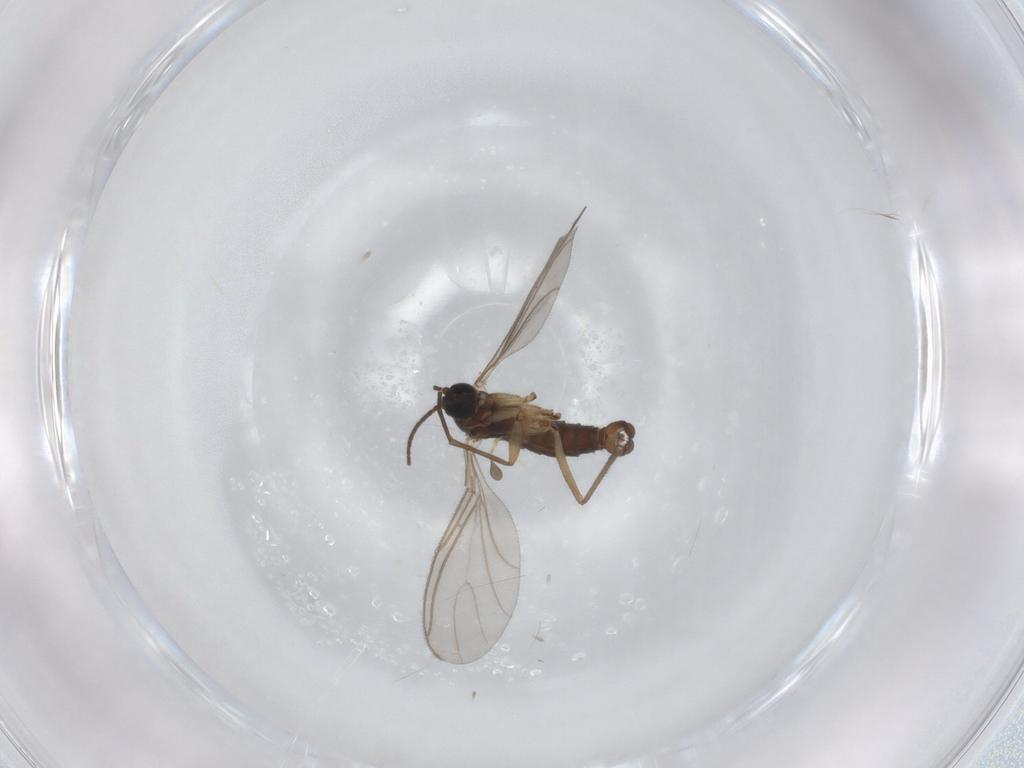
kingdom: Animalia
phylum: Arthropoda
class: Insecta
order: Diptera
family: Sciaridae
